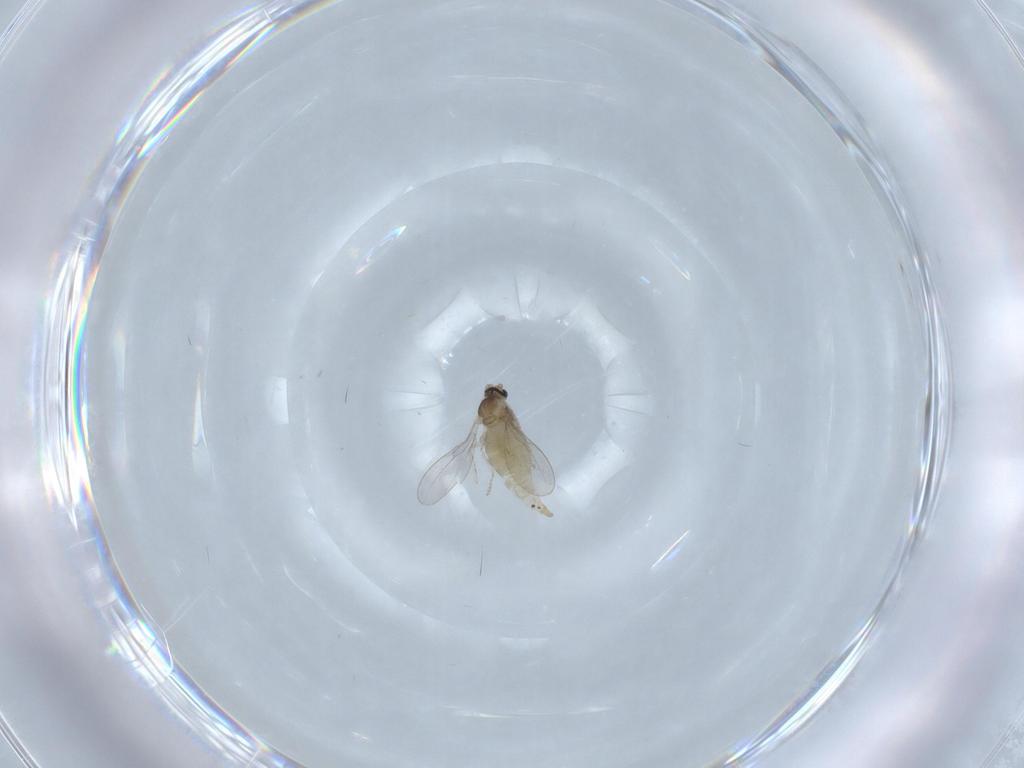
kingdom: Animalia
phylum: Arthropoda
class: Insecta
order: Diptera
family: Cecidomyiidae
